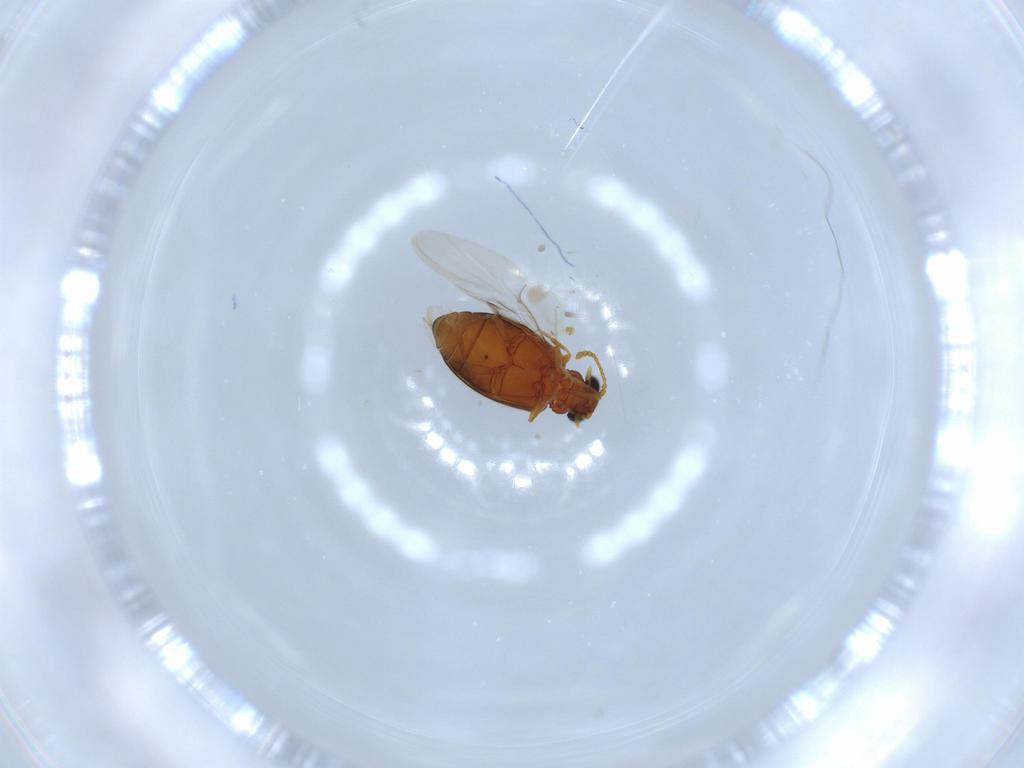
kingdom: Animalia
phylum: Arthropoda
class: Insecta
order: Coleoptera
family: Aderidae
